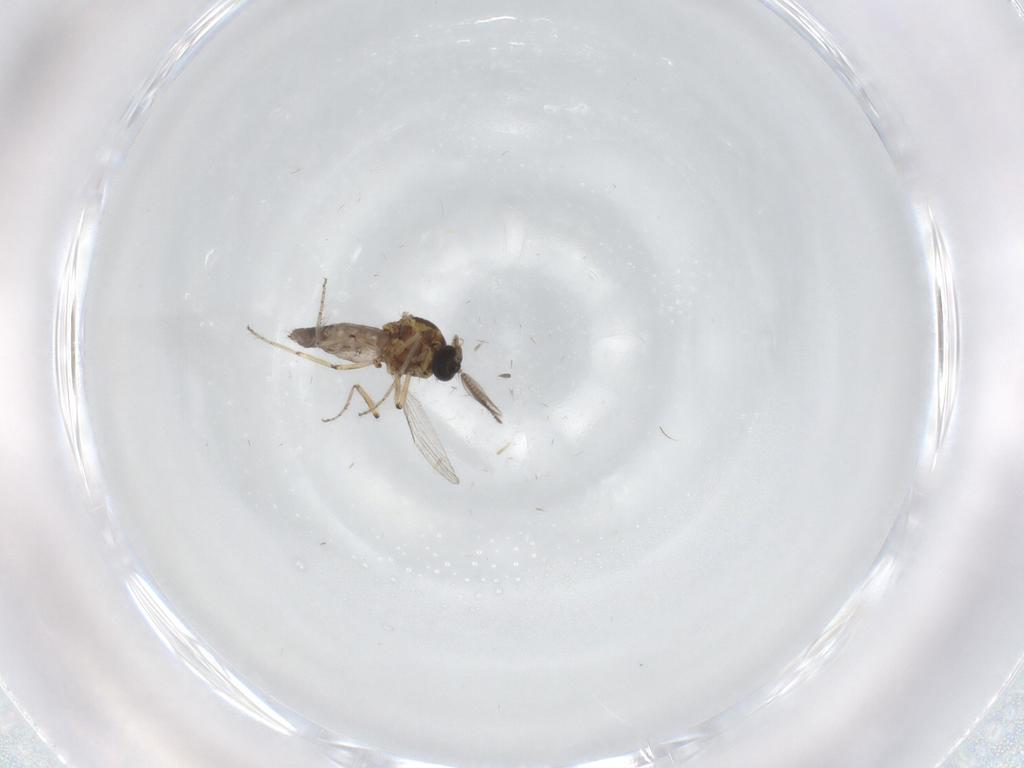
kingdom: Animalia
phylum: Arthropoda
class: Insecta
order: Diptera
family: Ceratopogonidae
